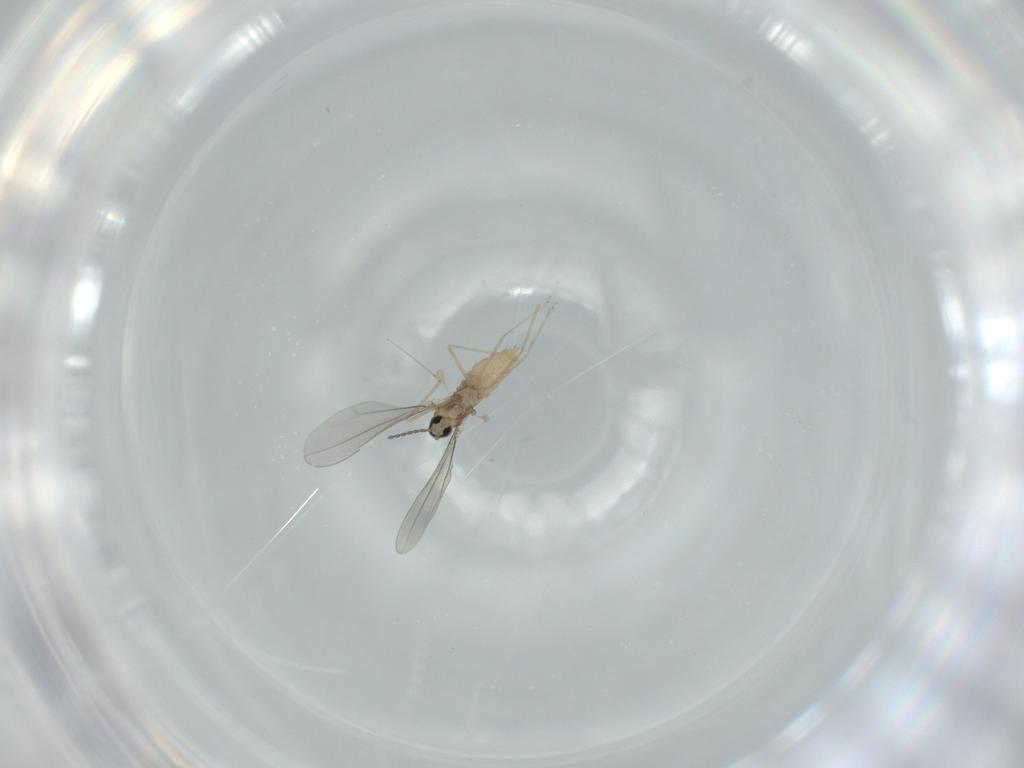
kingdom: Animalia
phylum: Arthropoda
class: Insecta
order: Diptera
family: Cecidomyiidae
